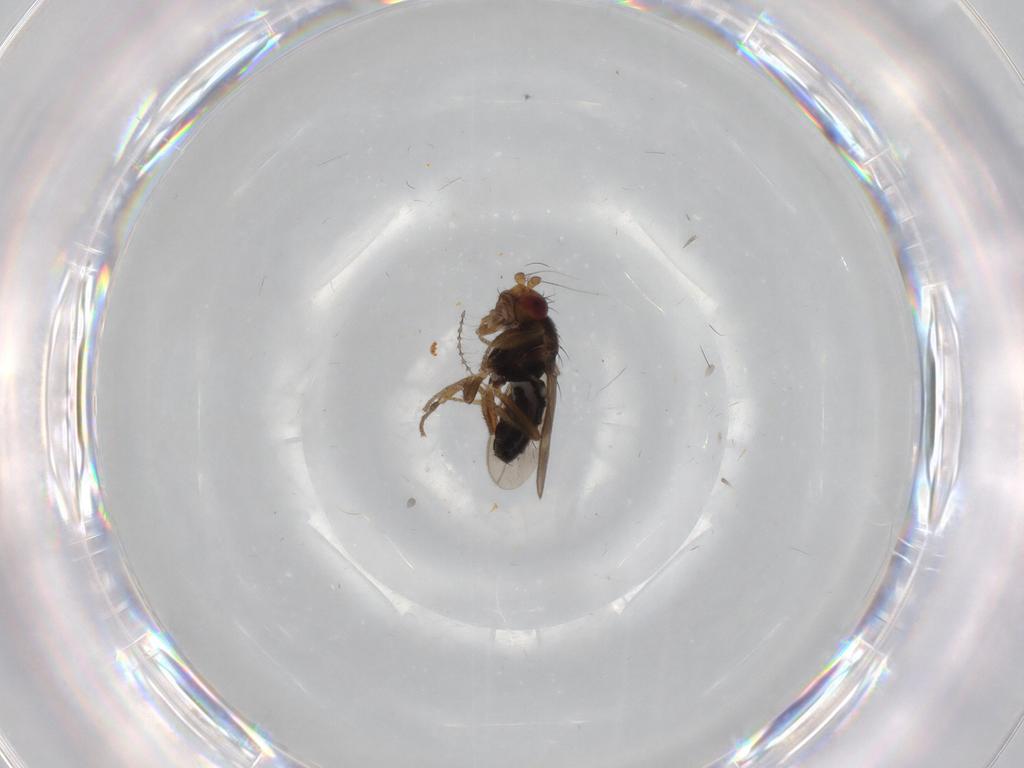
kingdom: Animalia
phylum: Arthropoda
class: Insecta
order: Diptera
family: Sphaeroceridae
